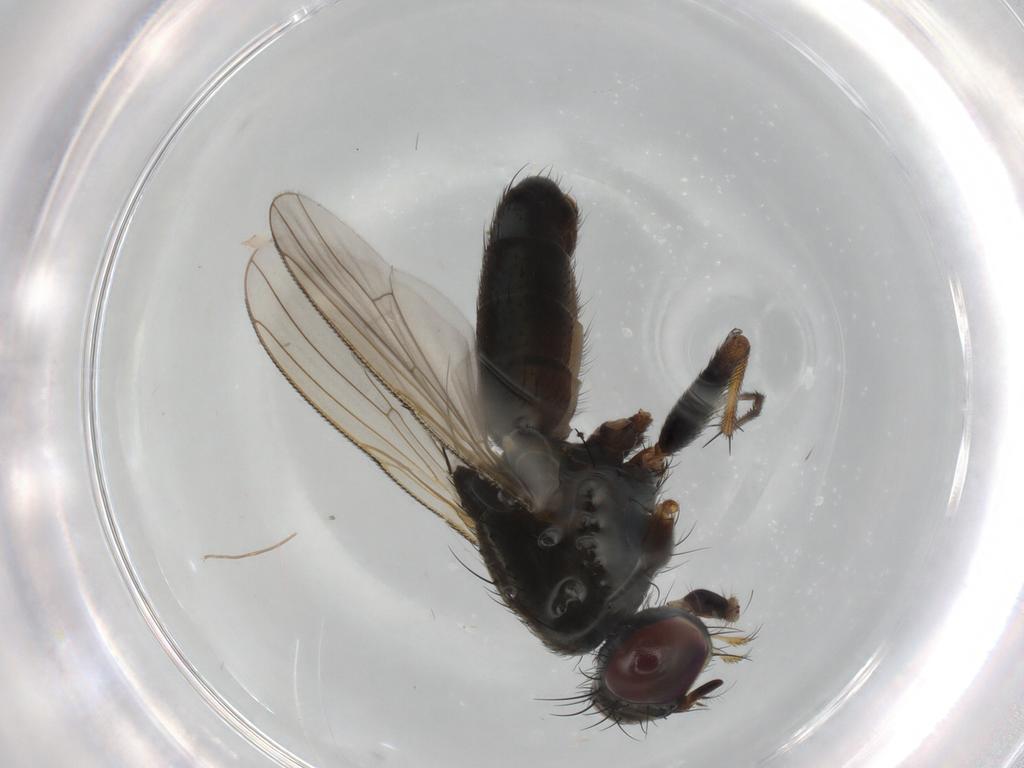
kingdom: Animalia
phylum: Arthropoda
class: Insecta
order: Diptera
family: Muscidae
